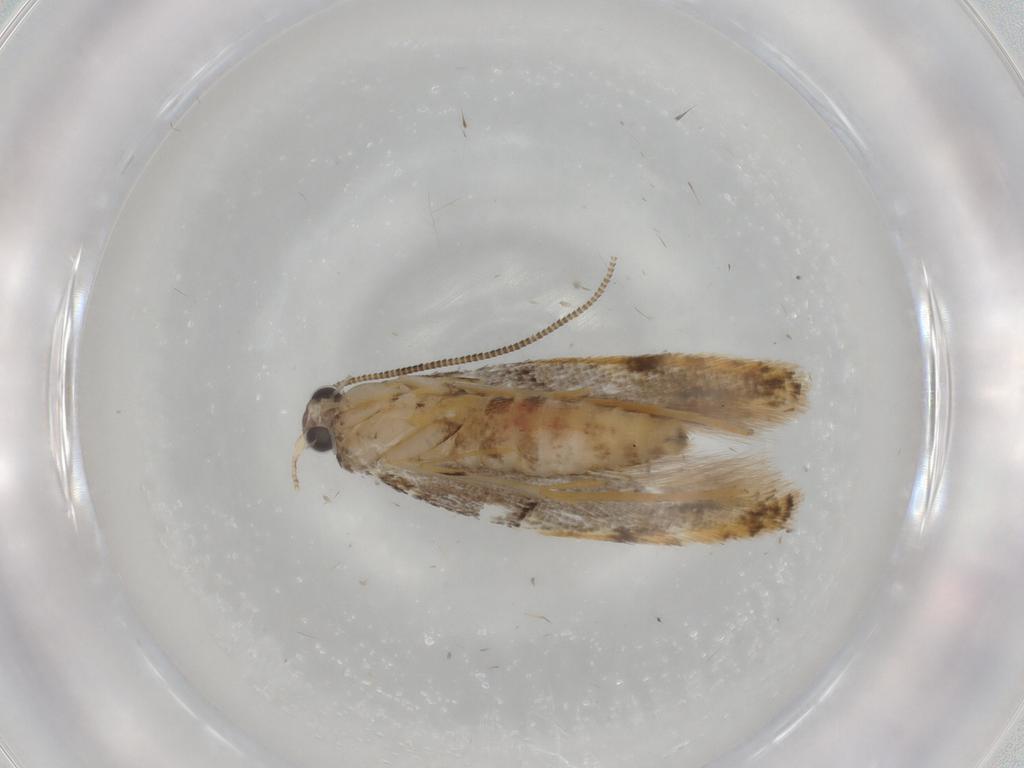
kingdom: Animalia
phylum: Arthropoda
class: Insecta
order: Lepidoptera
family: Tineidae
